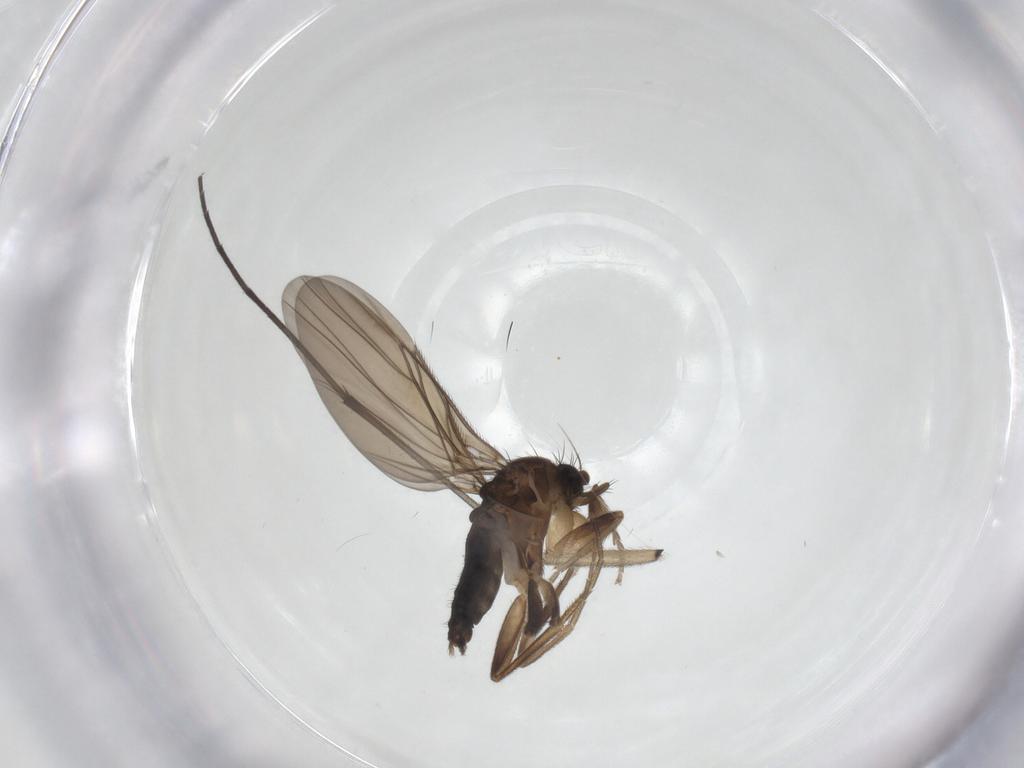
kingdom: Animalia
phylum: Arthropoda
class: Insecta
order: Diptera
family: Phoridae
